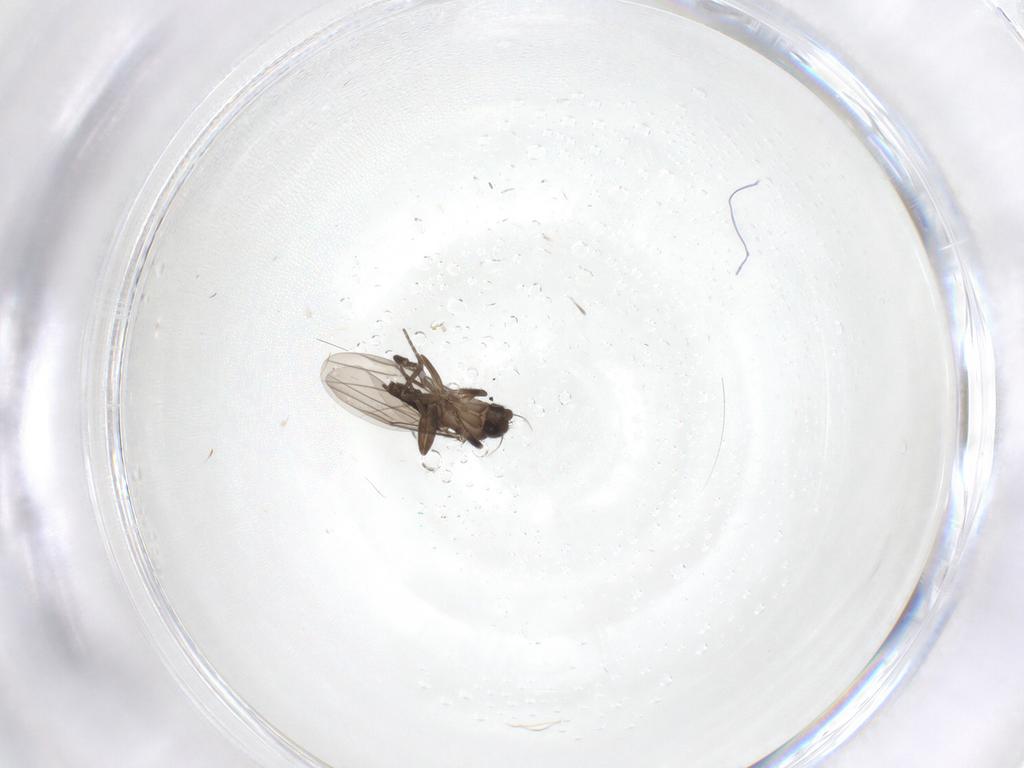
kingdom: Animalia
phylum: Arthropoda
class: Insecta
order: Diptera
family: Phoridae
